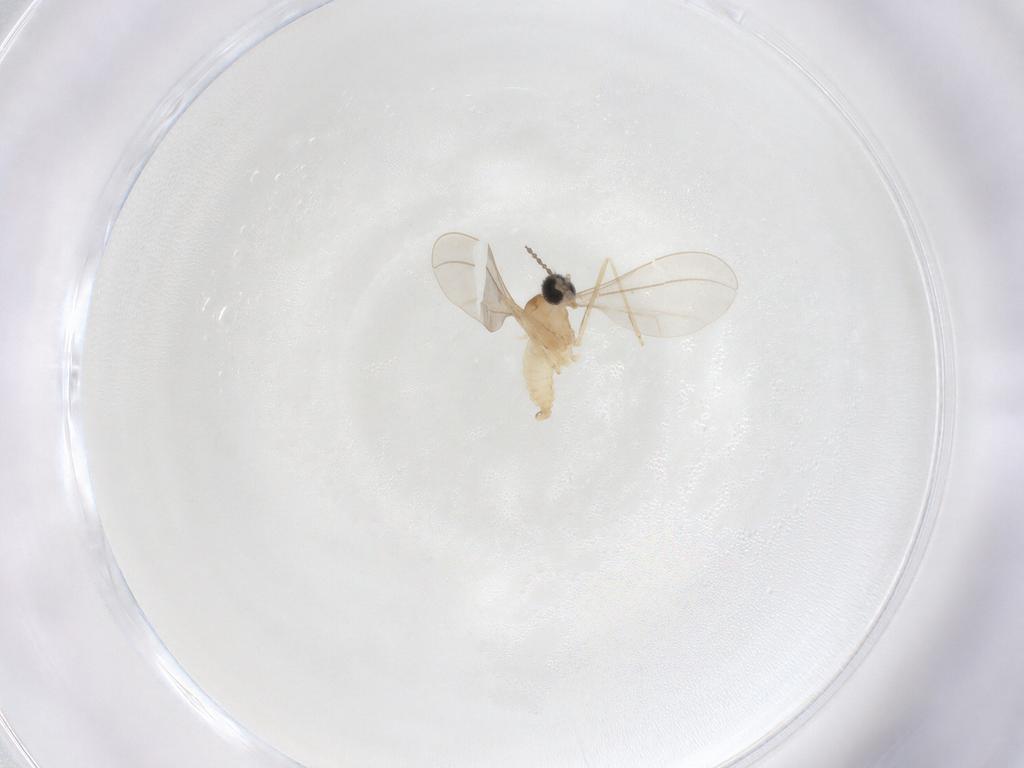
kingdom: Animalia
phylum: Arthropoda
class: Insecta
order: Diptera
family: Cecidomyiidae
